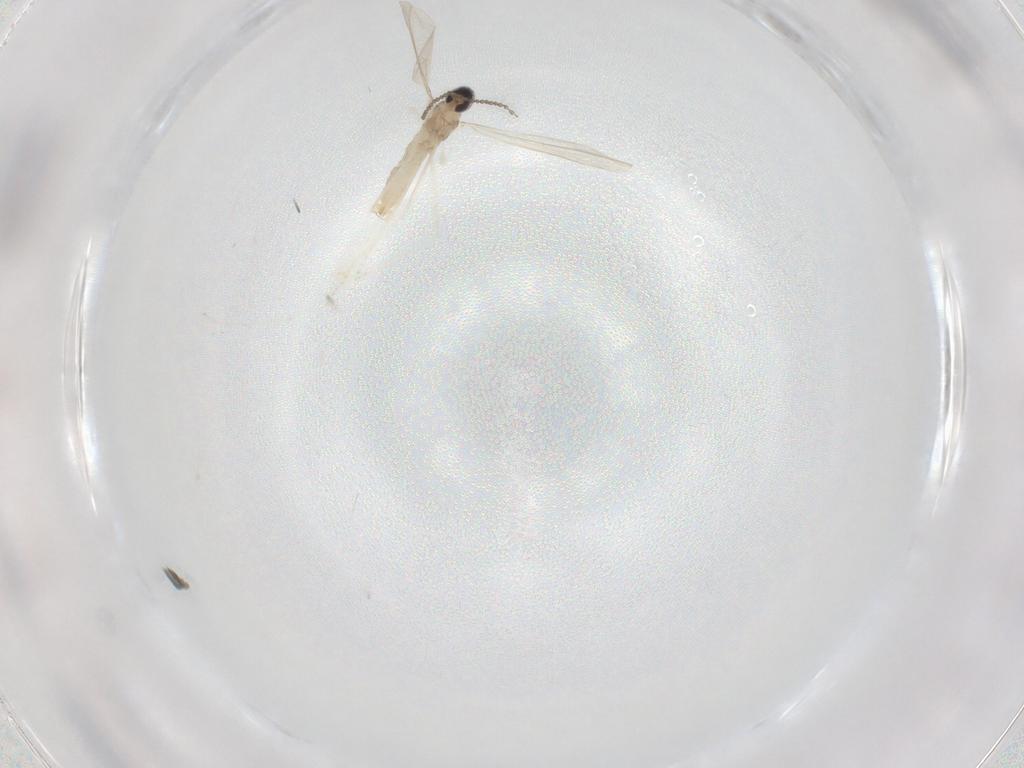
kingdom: Animalia
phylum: Arthropoda
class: Insecta
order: Diptera
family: Cecidomyiidae
